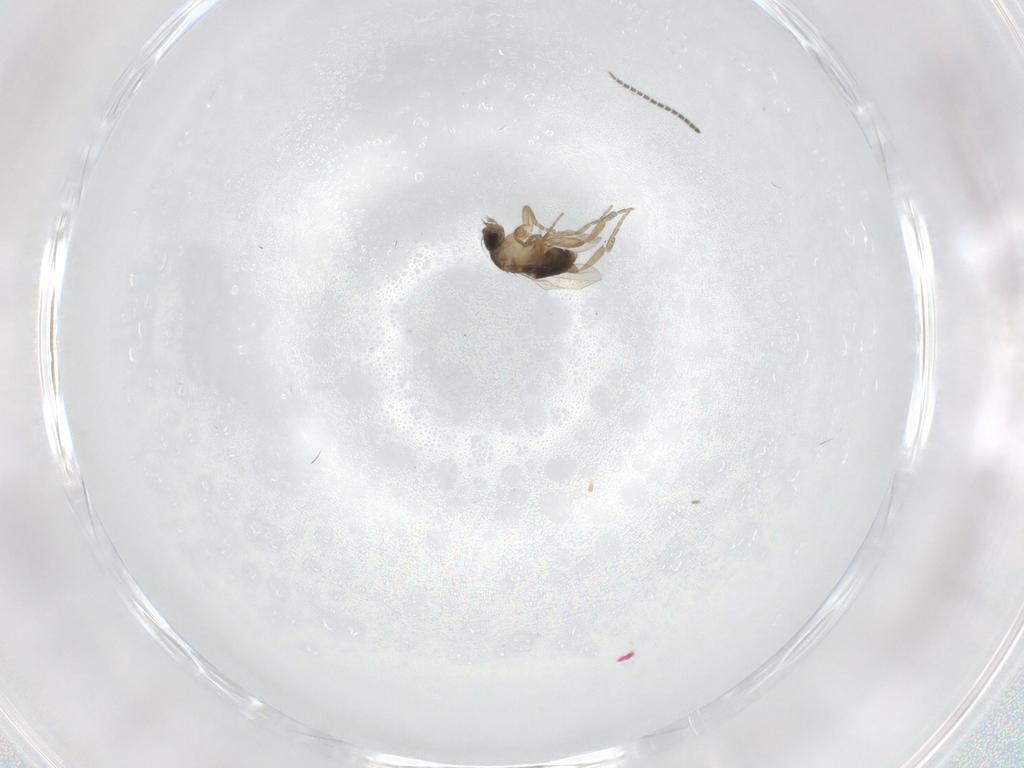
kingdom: Animalia
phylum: Arthropoda
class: Insecta
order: Diptera
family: Sciaridae
